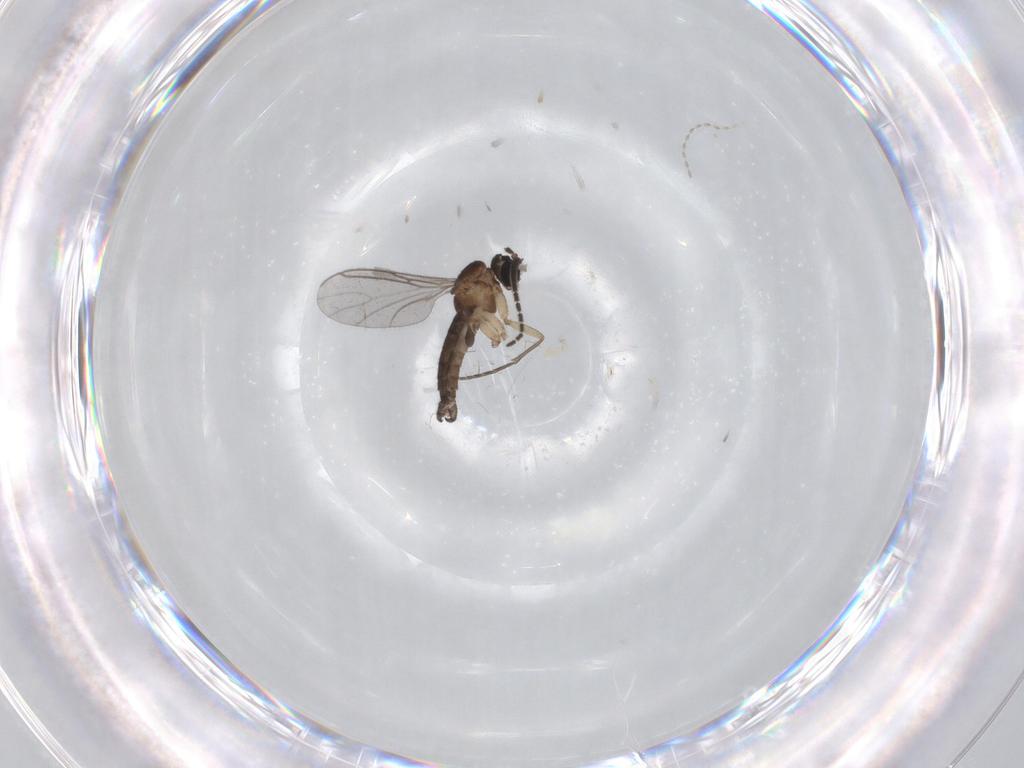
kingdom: Animalia
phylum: Arthropoda
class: Insecta
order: Diptera
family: Sciaridae
